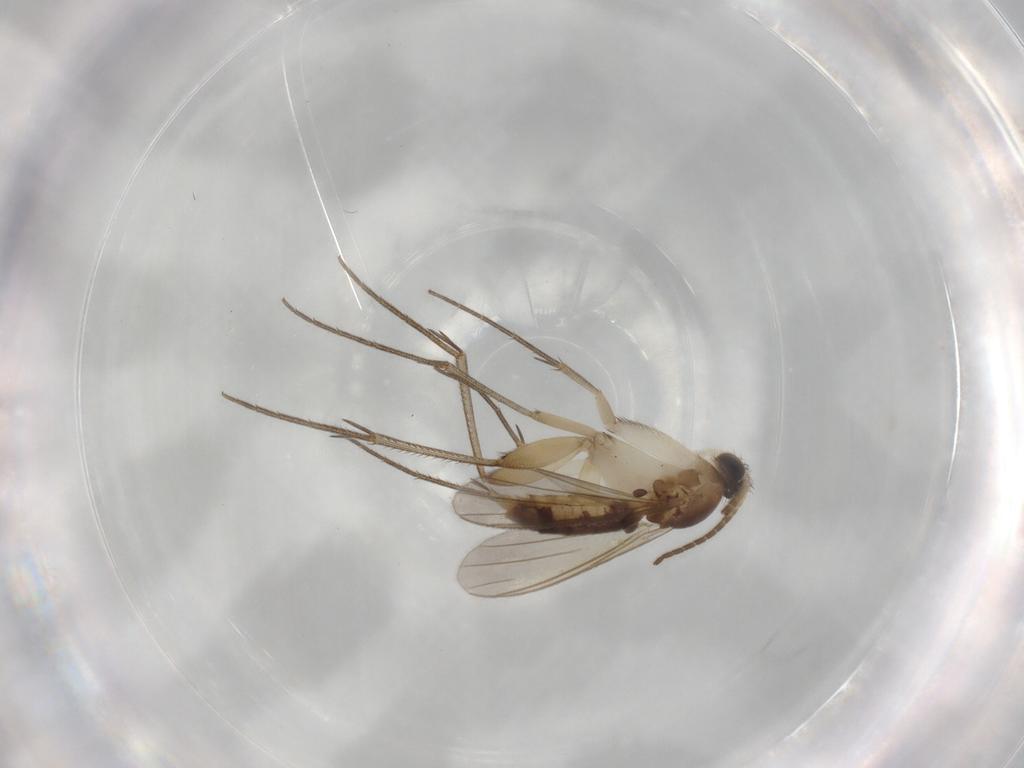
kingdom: Animalia
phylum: Arthropoda
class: Insecta
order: Diptera
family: Mycetophilidae
